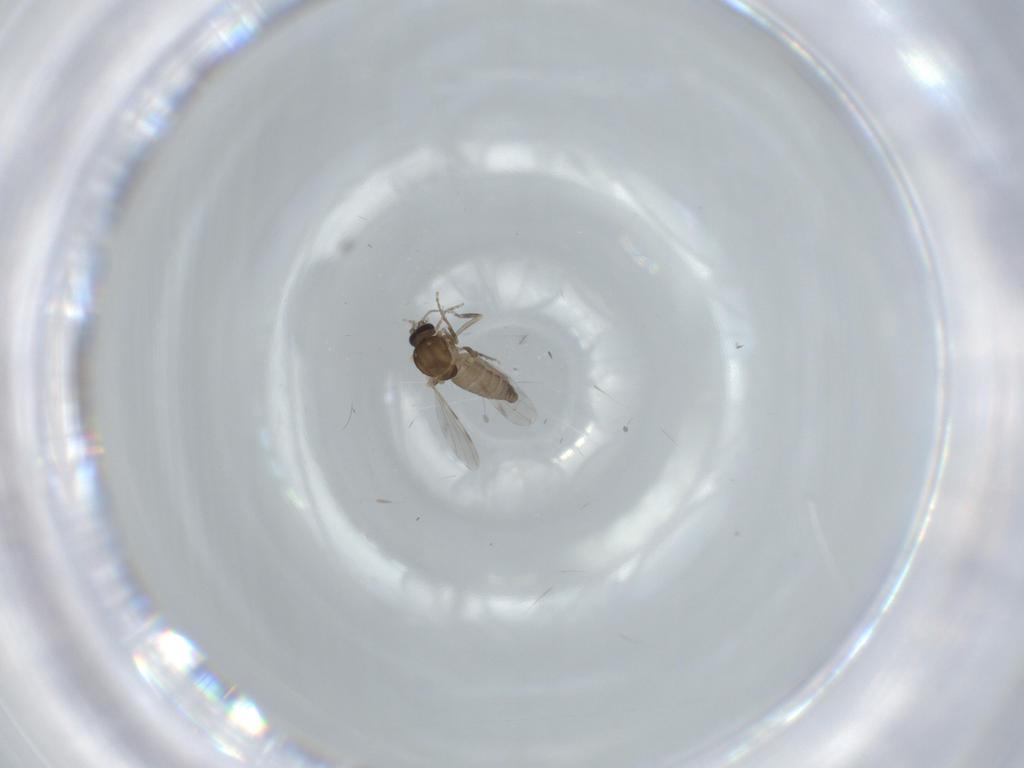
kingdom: Animalia
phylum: Arthropoda
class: Insecta
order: Diptera
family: Ceratopogonidae
